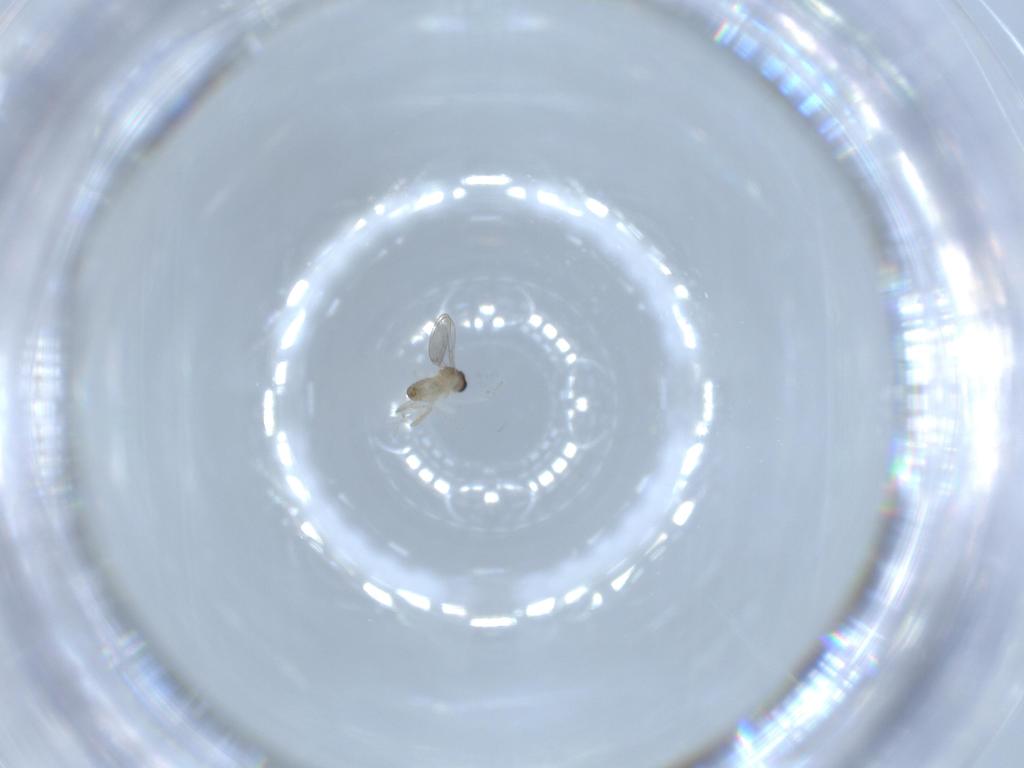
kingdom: Animalia
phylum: Arthropoda
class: Insecta
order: Diptera
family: Cecidomyiidae
